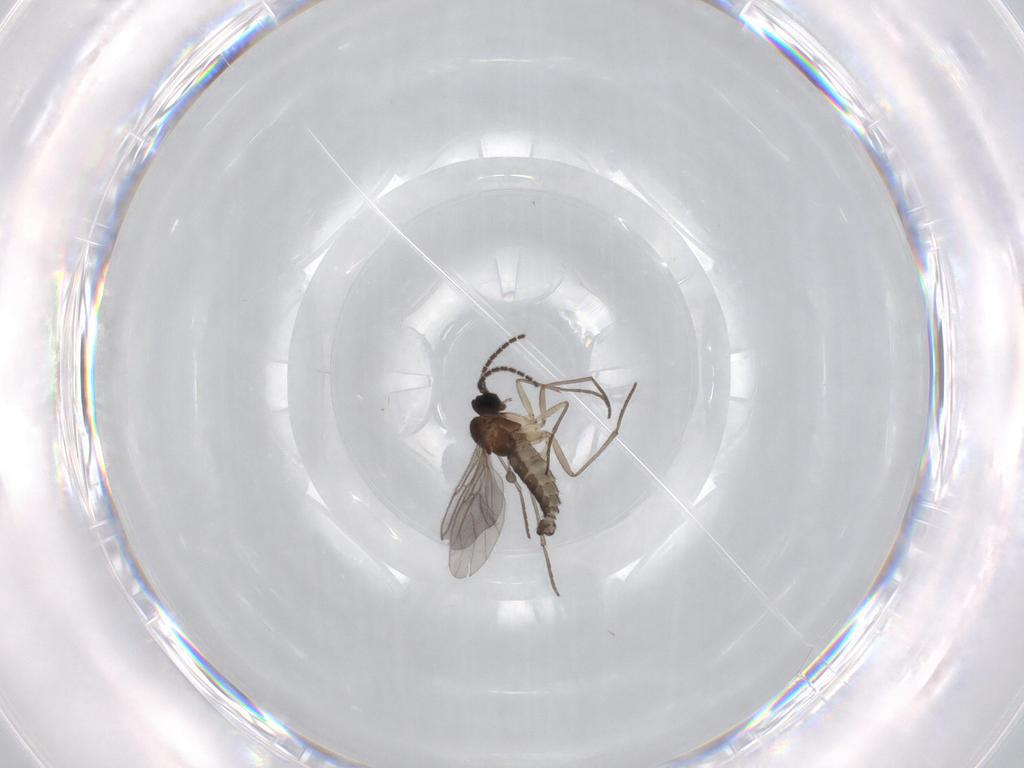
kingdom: Animalia
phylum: Arthropoda
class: Insecta
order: Diptera
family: Sciaridae
